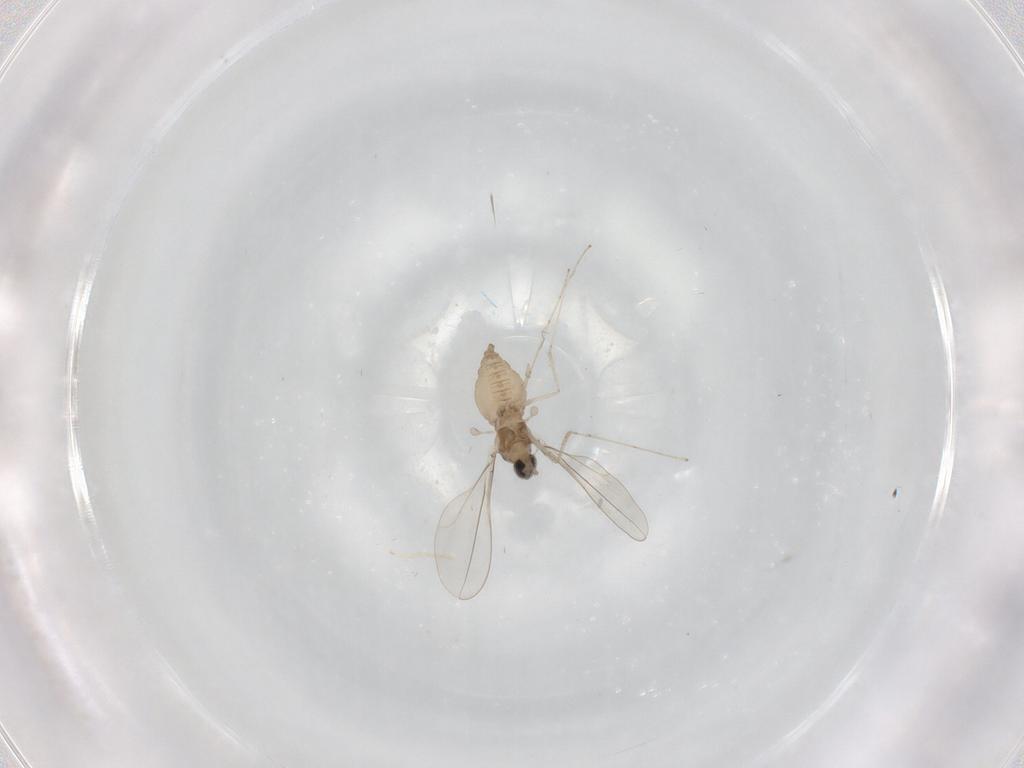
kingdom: Animalia
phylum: Arthropoda
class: Insecta
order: Diptera
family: Cecidomyiidae
